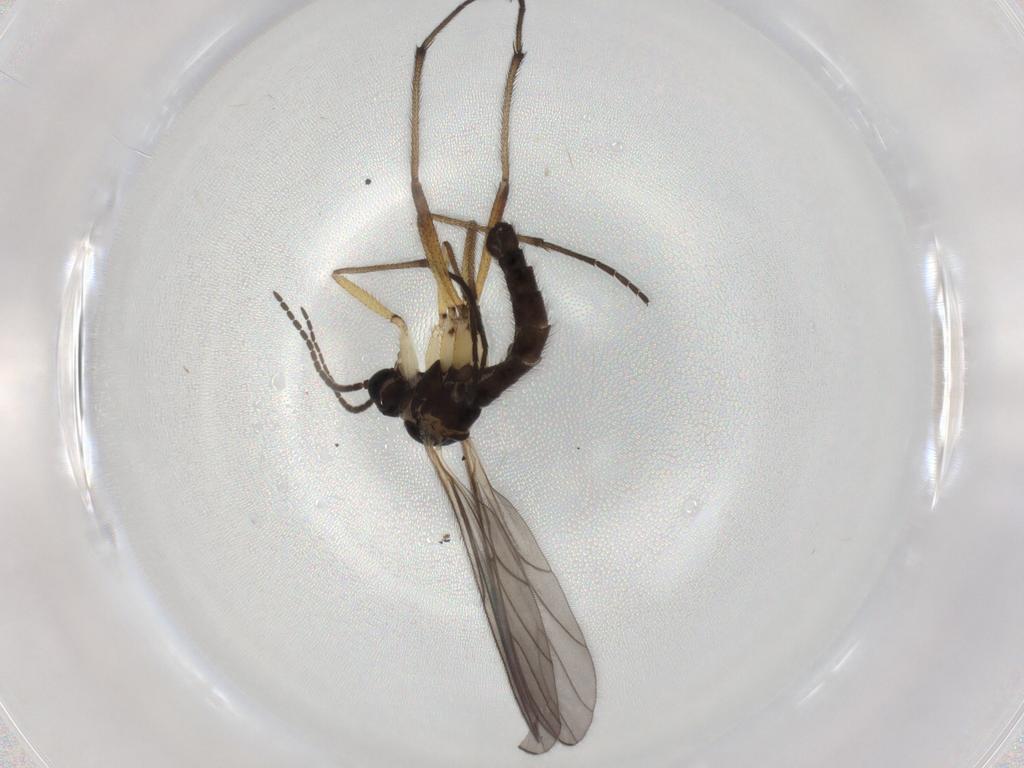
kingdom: Animalia
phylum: Arthropoda
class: Insecta
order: Diptera
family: Sciaridae
